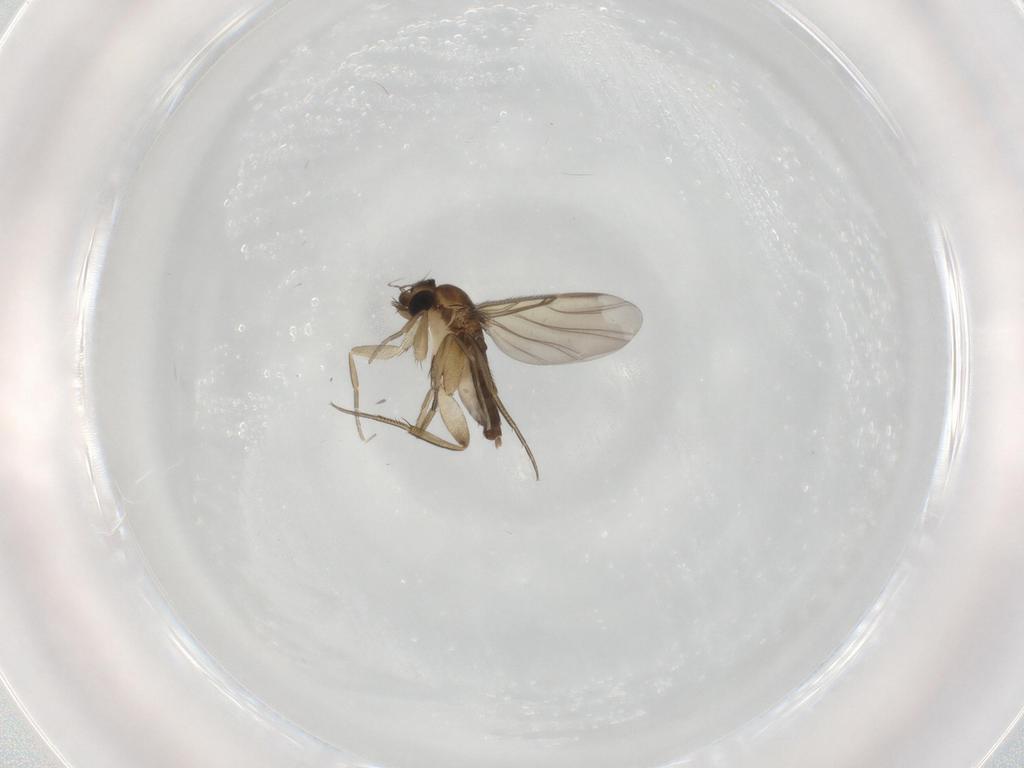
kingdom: Animalia
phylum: Arthropoda
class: Insecta
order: Diptera
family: Phoridae
